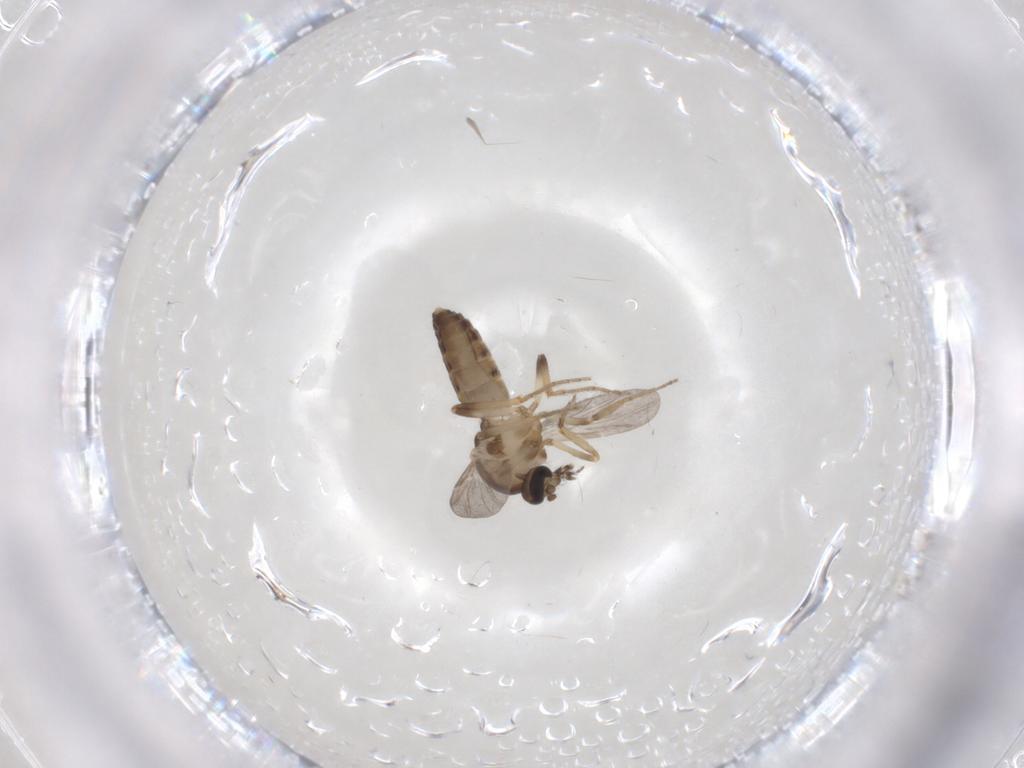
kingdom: Animalia
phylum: Arthropoda
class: Insecta
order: Diptera
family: Ceratopogonidae
